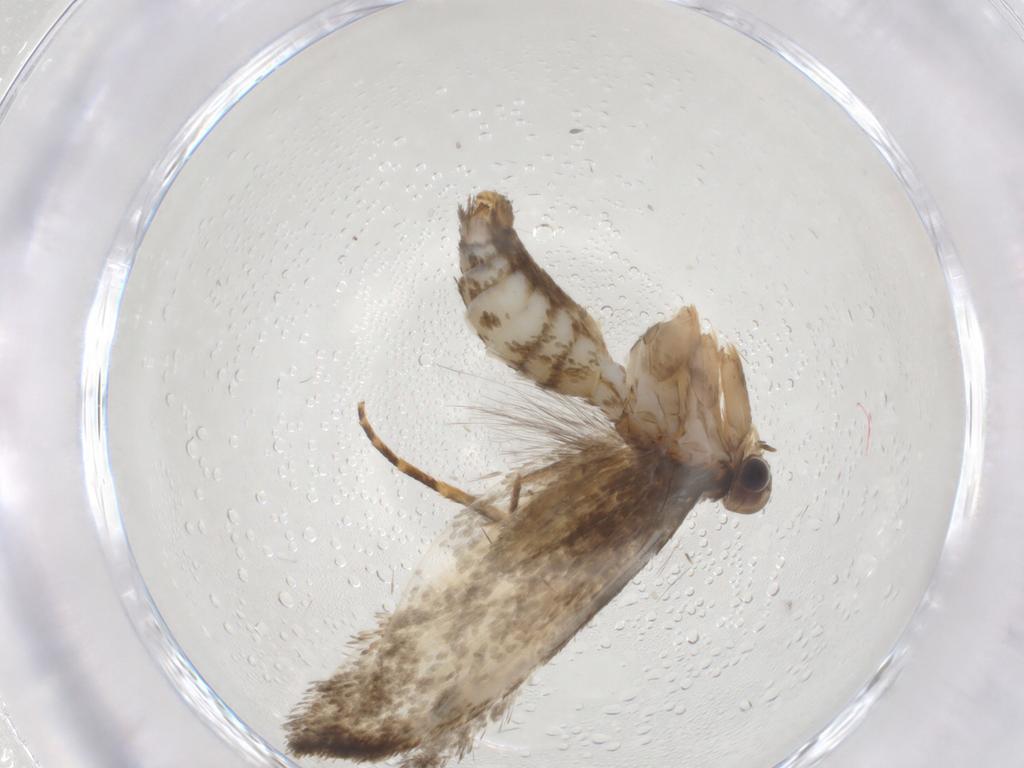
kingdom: Animalia
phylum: Arthropoda
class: Insecta
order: Lepidoptera
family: Crambidae
